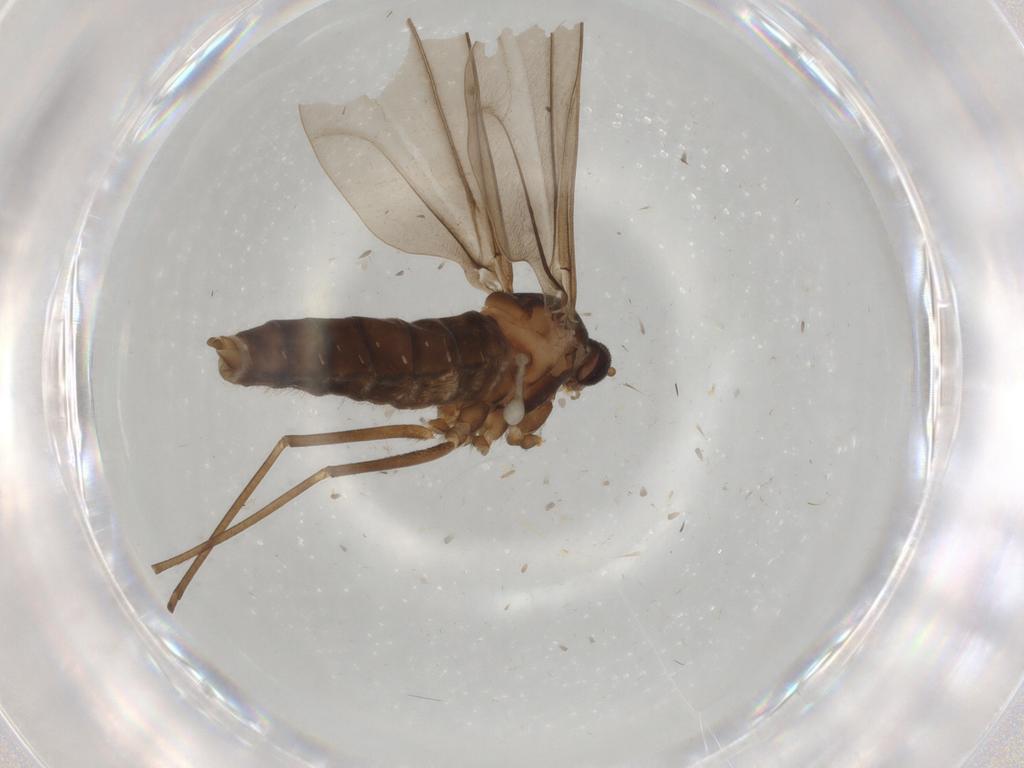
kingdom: Animalia
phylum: Arthropoda
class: Insecta
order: Diptera
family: Cecidomyiidae
